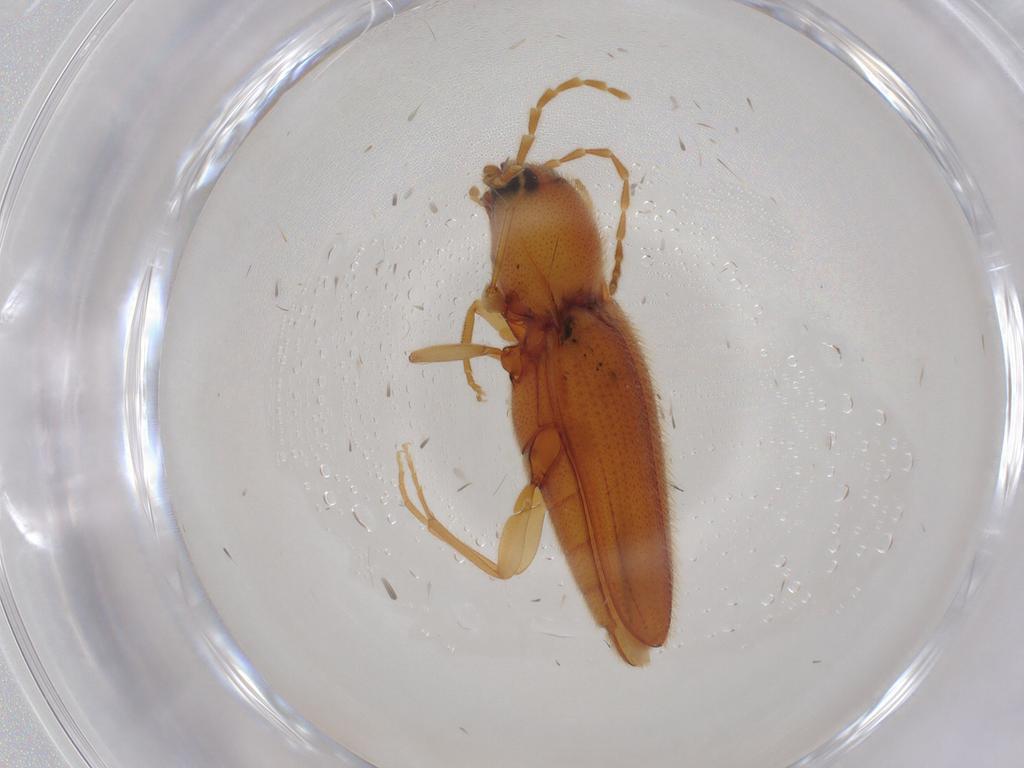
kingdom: Animalia
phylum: Arthropoda
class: Insecta
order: Coleoptera
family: Elateridae
